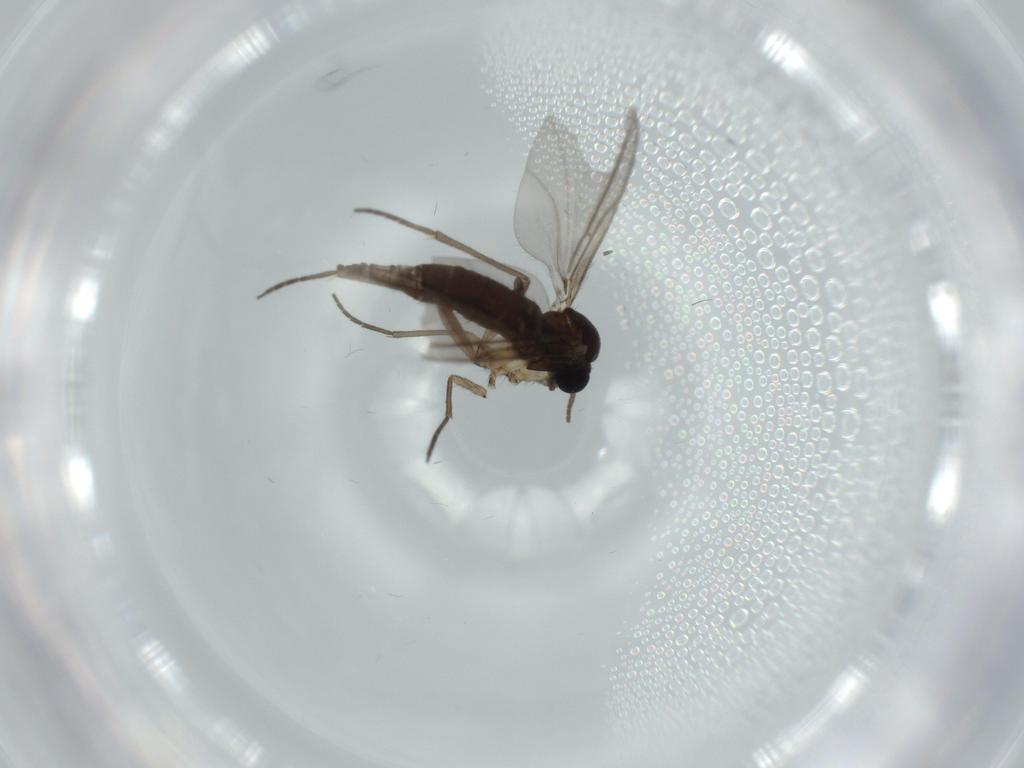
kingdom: Animalia
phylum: Arthropoda
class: Insecta
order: Diptera
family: Sciaridae
